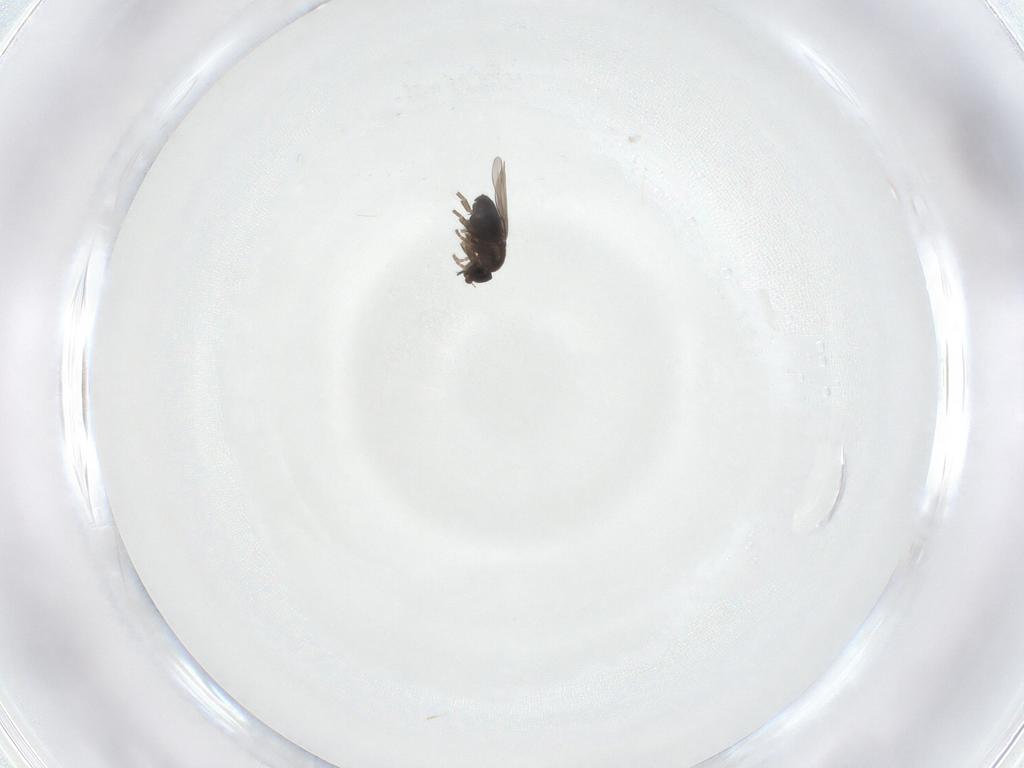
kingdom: Animalia
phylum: Arthropoda
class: Insecta
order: Diptera
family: Phoridae
